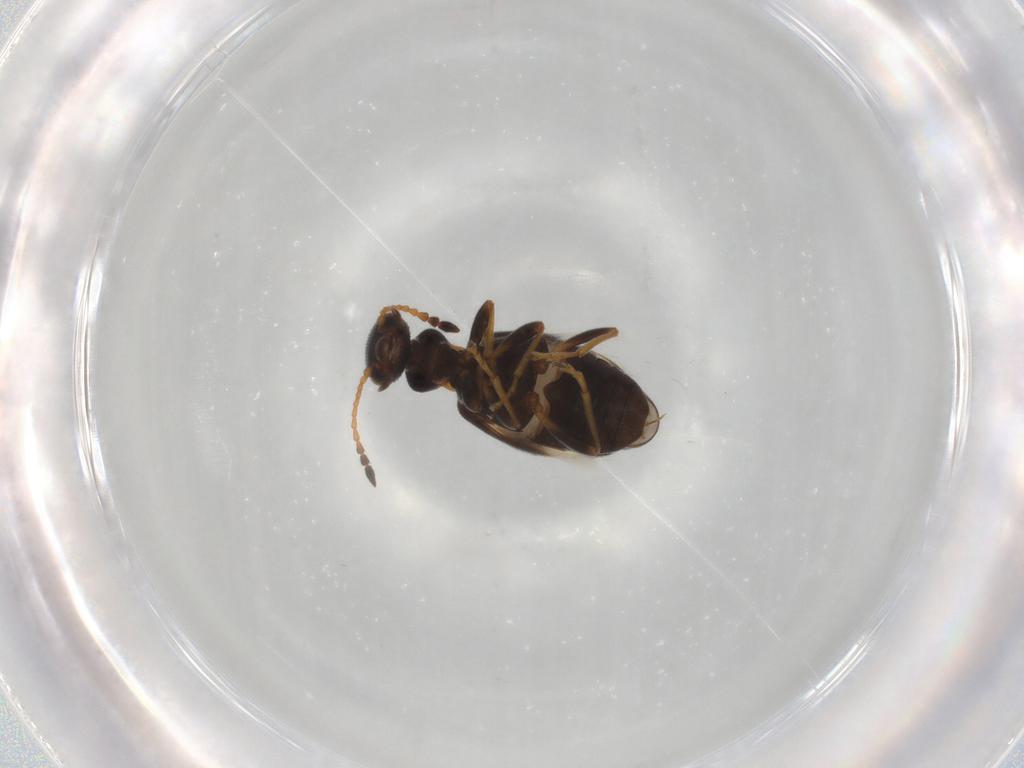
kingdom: Animalia
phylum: Arthropoda
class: Insecta
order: Coleoptera
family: Anthicidae
